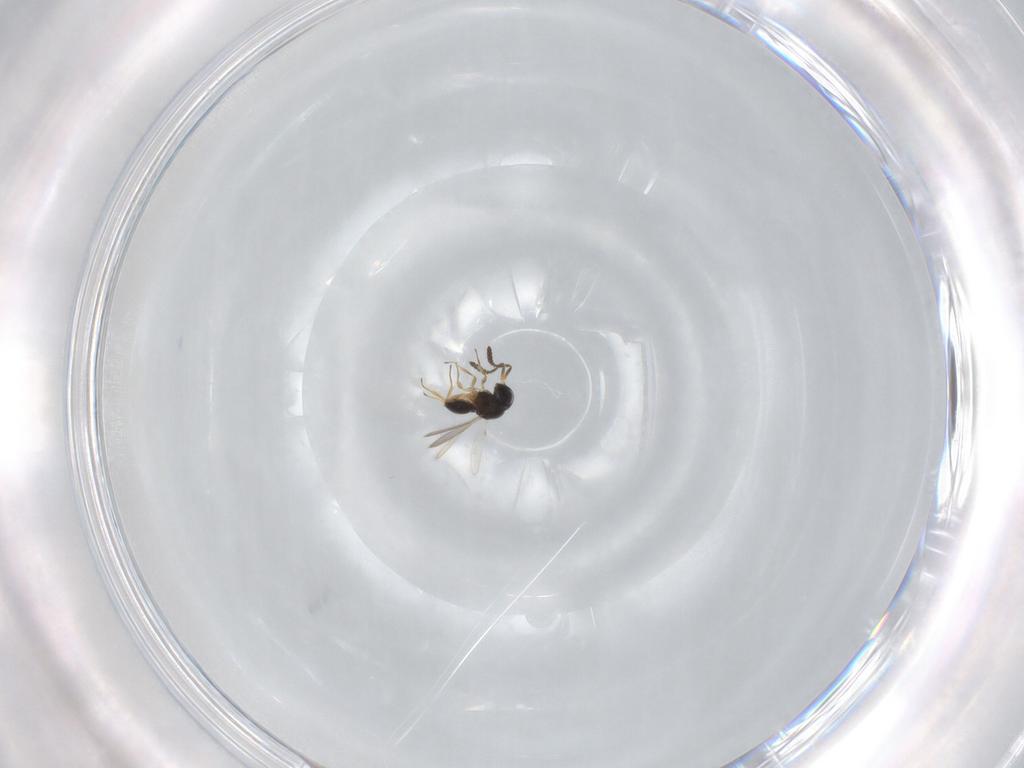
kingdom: Animalia
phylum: Arthropoda
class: Insecta
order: Hymenoptera
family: Scelionidae
